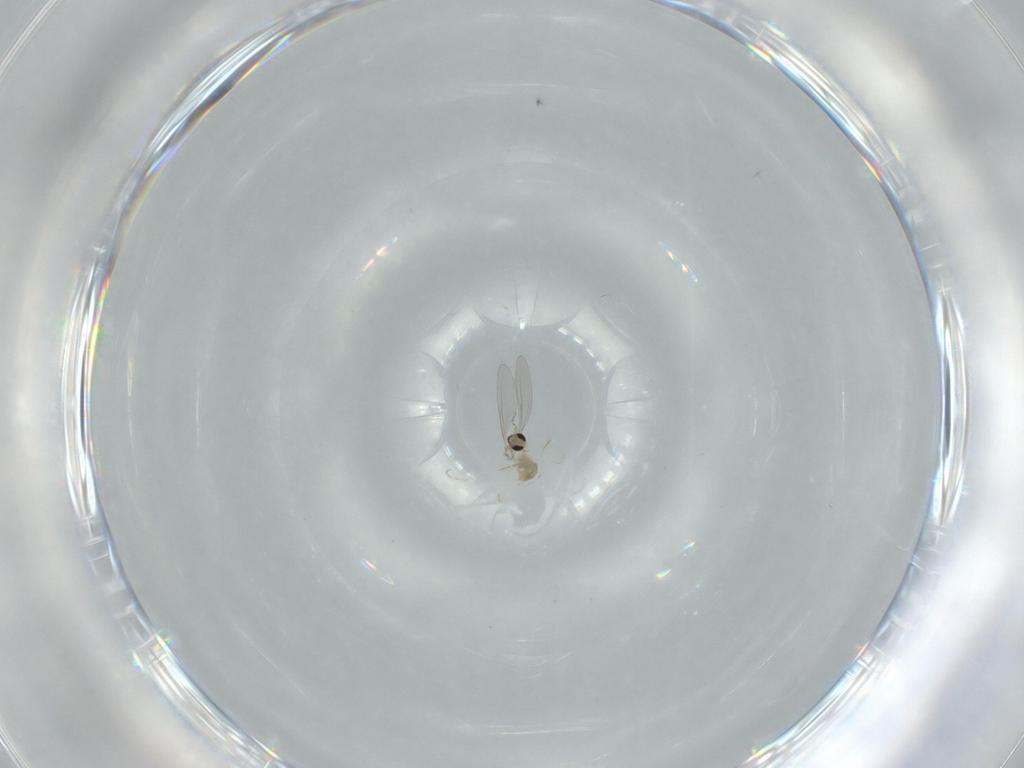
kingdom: Animalia
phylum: Arthropoda
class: Insecta
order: Diptera
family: Cecidomyiidae
